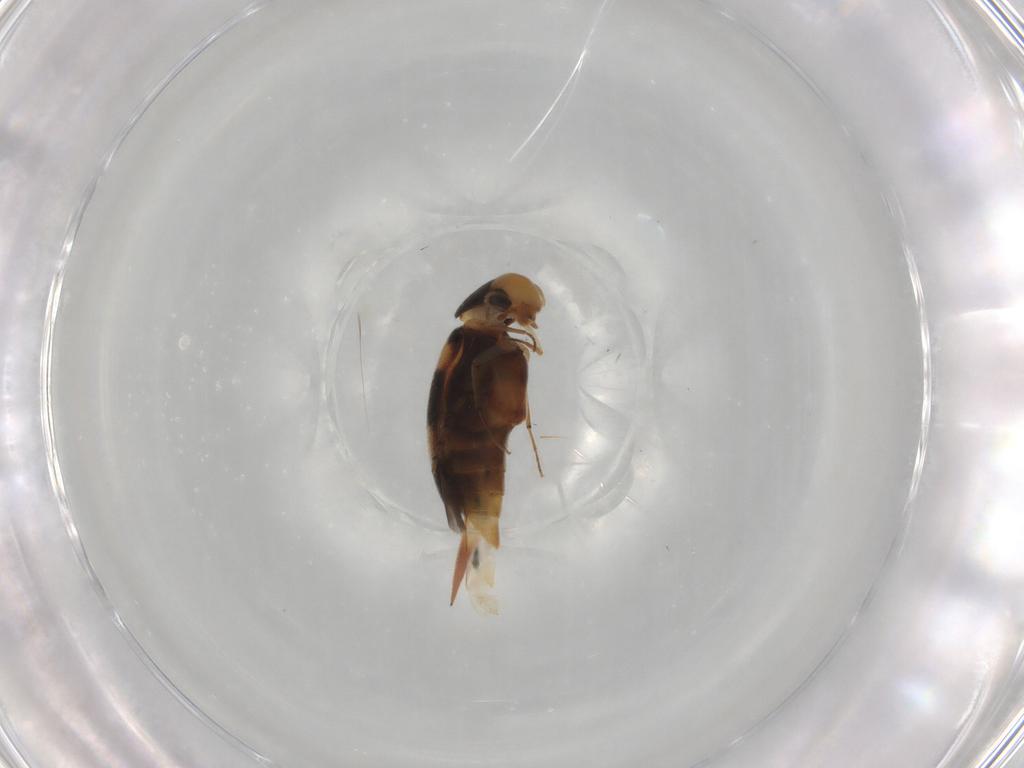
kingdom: Animalia
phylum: Arthropoda
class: Insecta
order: Coleoptera
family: Mordellidae
